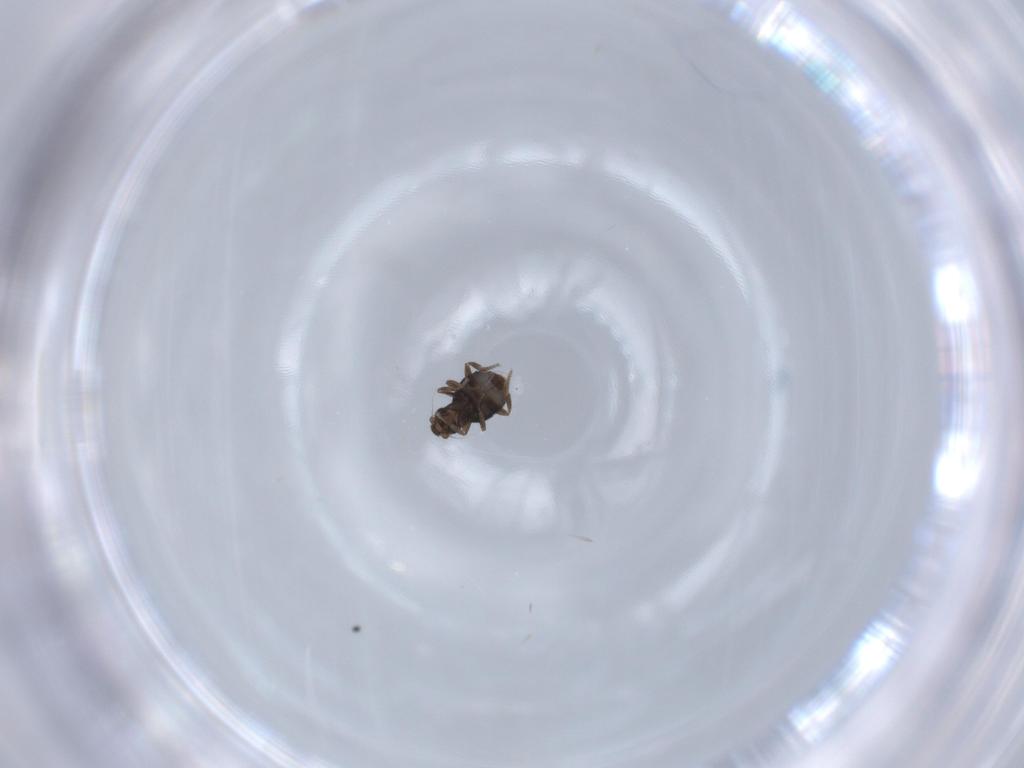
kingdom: Animalia
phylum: Arthropoda
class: Insecta
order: Diptera
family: Phoridae
